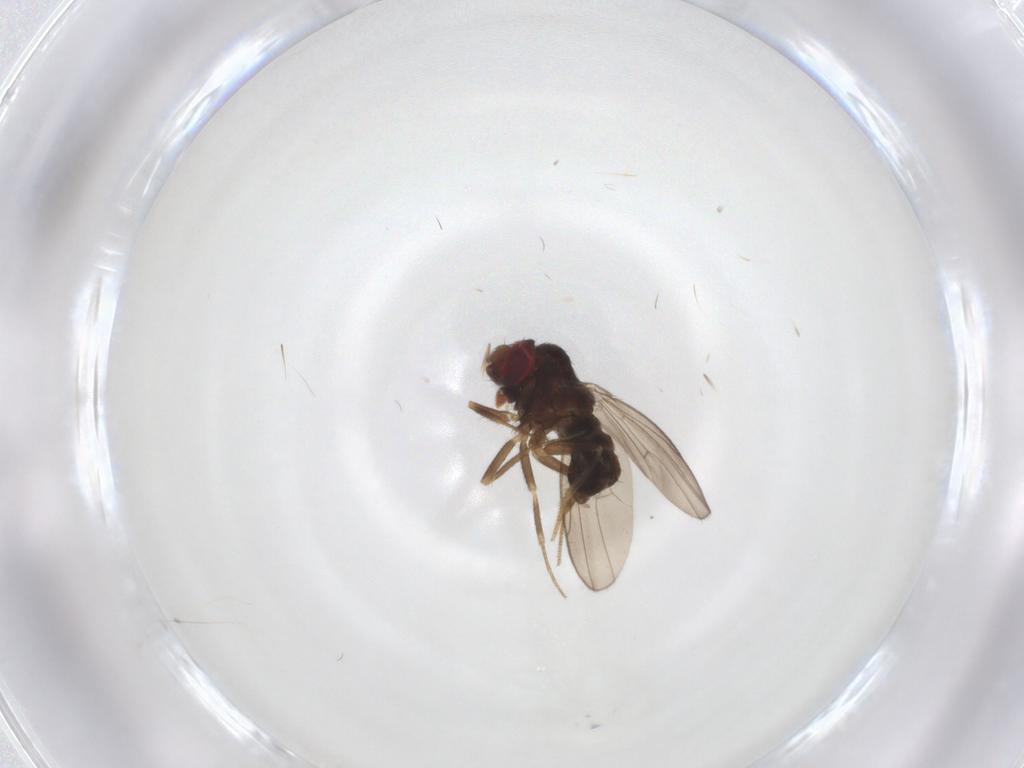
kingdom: Animalia
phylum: Arthropoda
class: Insecta
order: Diptera
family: Drosophilidae
